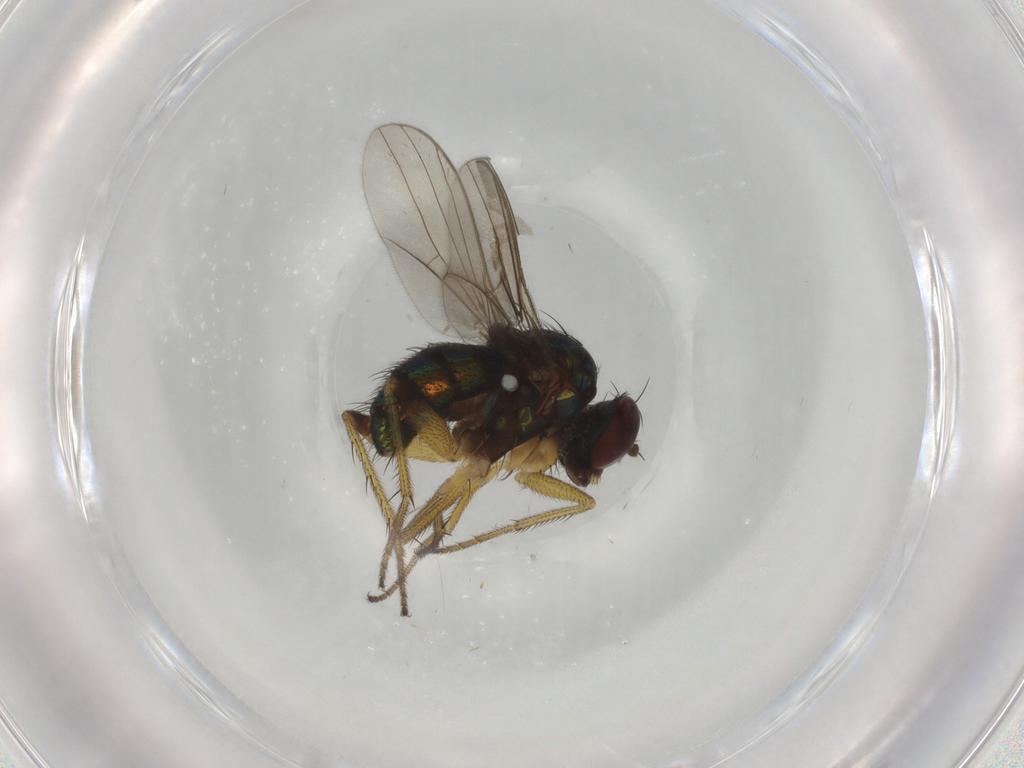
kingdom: Animalia
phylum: Arthropoda
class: Insecta
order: Diptera
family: Dolichopodidae
